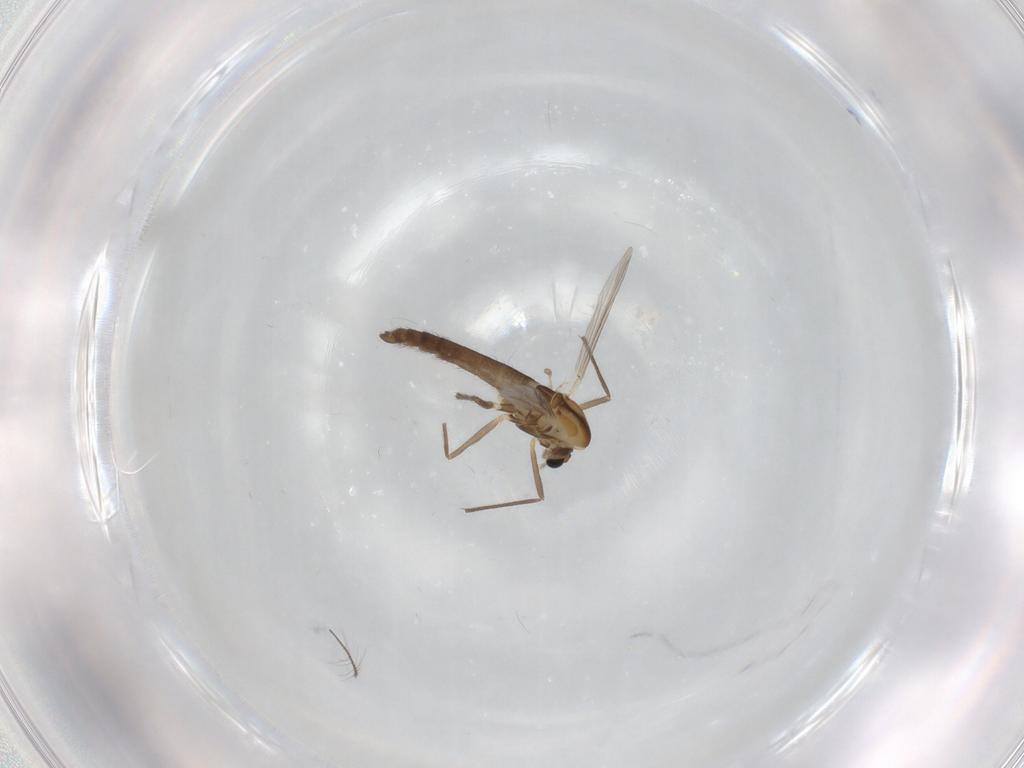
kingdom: Animalia
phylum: Arthropoda
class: Insecta
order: Diptera
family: Chironomidae
